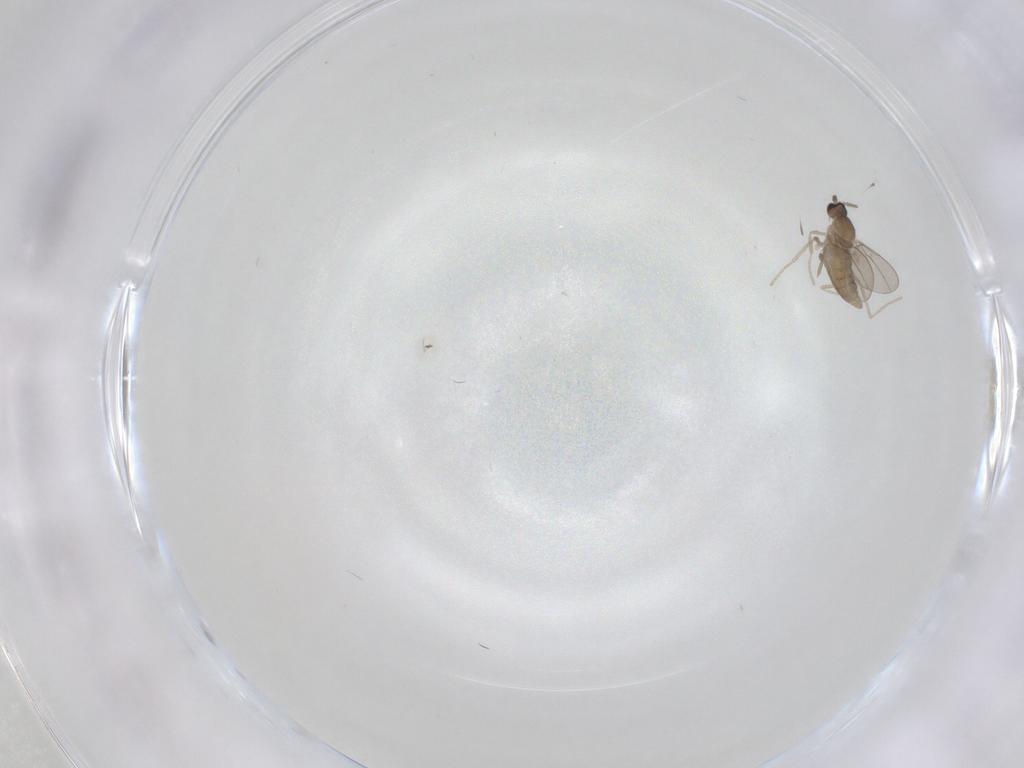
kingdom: Animalia
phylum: Arthropoda
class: Insecta
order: Diptera
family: Cecidomyiidae
